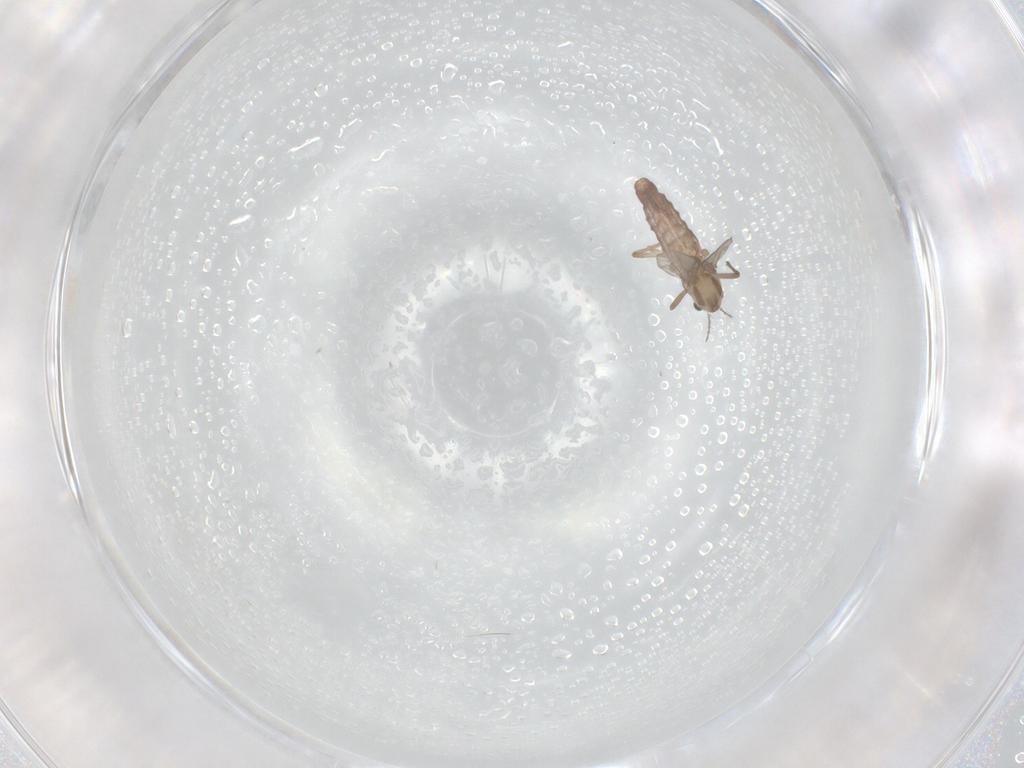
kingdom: Animalia
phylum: Arthropoda
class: Insecta
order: Diptera
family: Chironomidae
